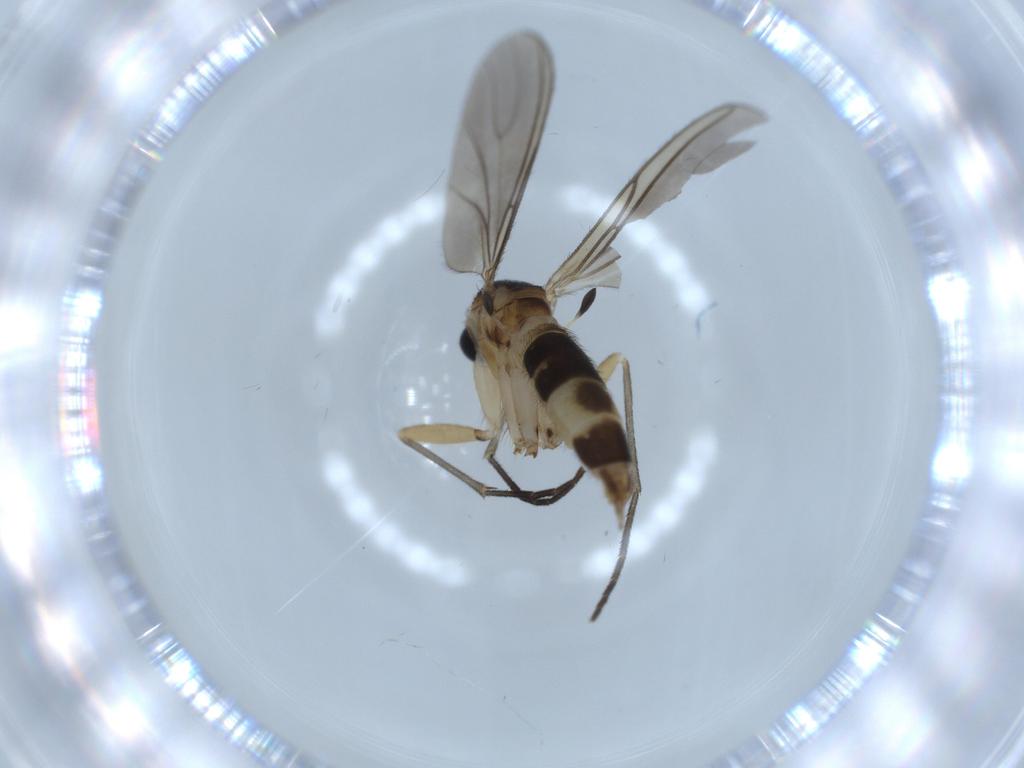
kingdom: Animalia
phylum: Arthropoda
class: Insecta
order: Diptera
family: Sciaridae
